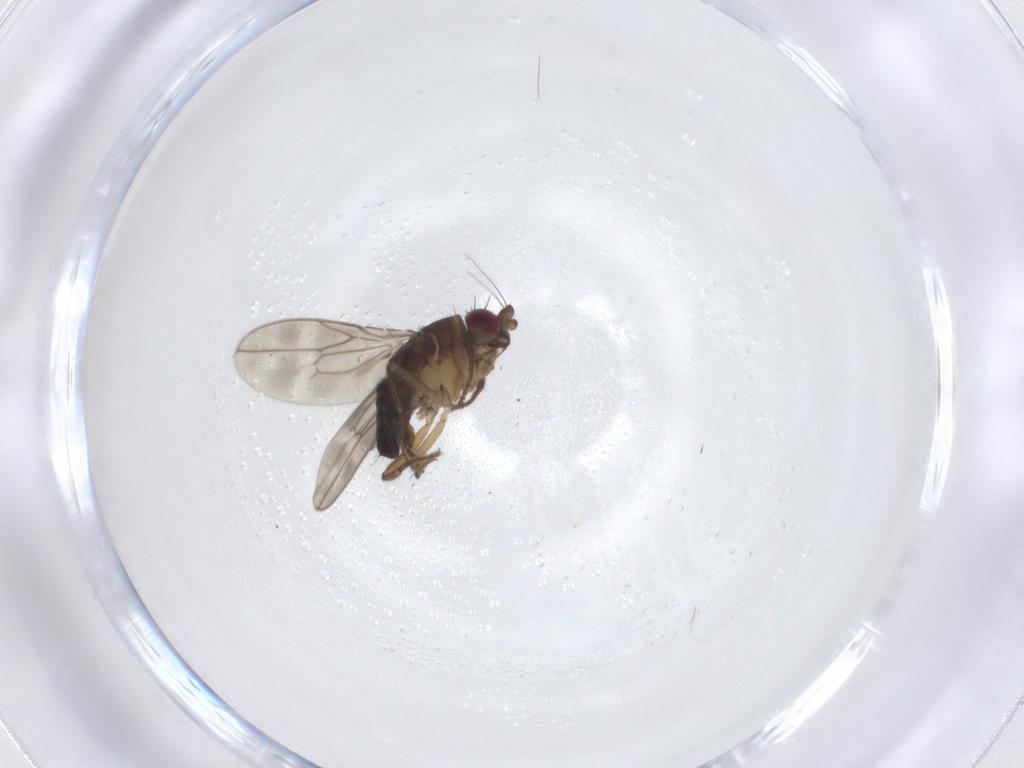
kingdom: Animalia
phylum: Arthropoda
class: Insecta
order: Diptera
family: Sphaeroceridae
